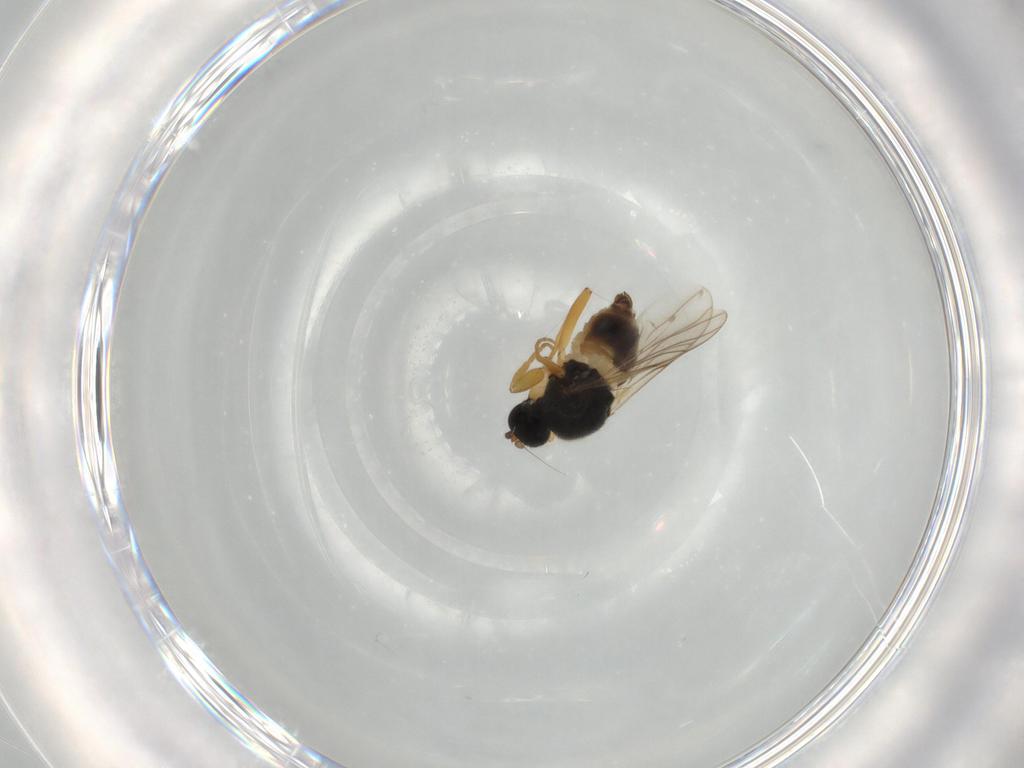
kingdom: Animalia
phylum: Arthropoda
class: Insecta
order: Diptera
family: Hybotidae
